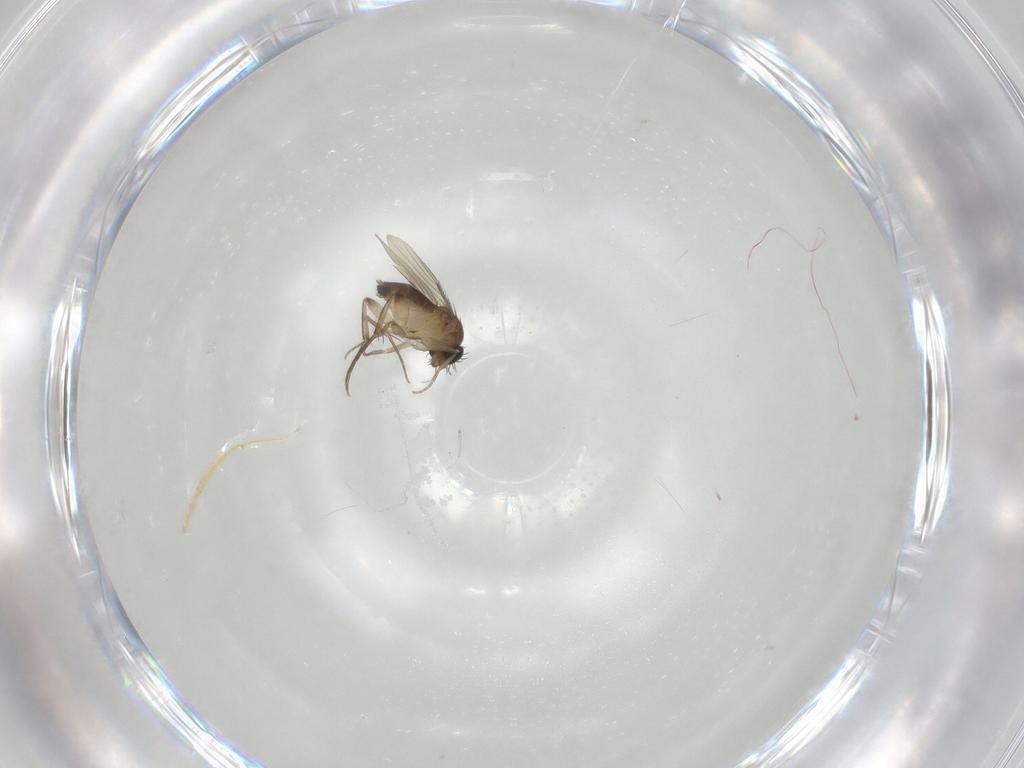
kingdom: Animalia
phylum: Arthropoda
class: Insecta
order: Diptera
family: Phoridae
